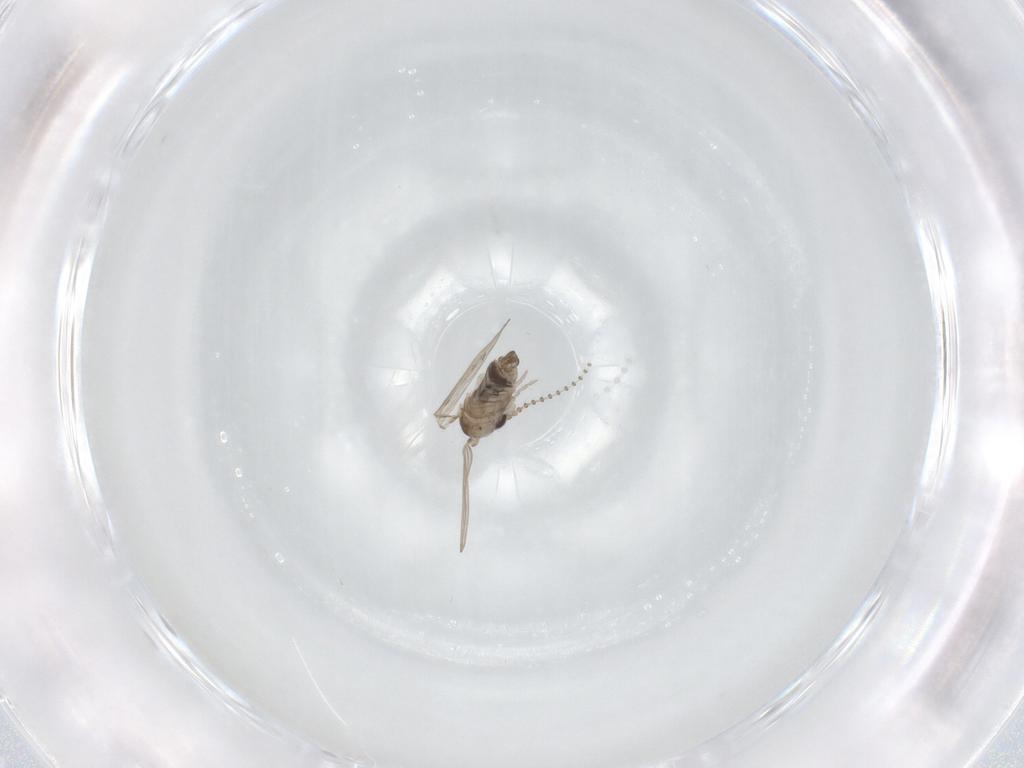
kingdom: Animalia
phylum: Arthropoda
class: Insecta
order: Diptera
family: Psychodidae
